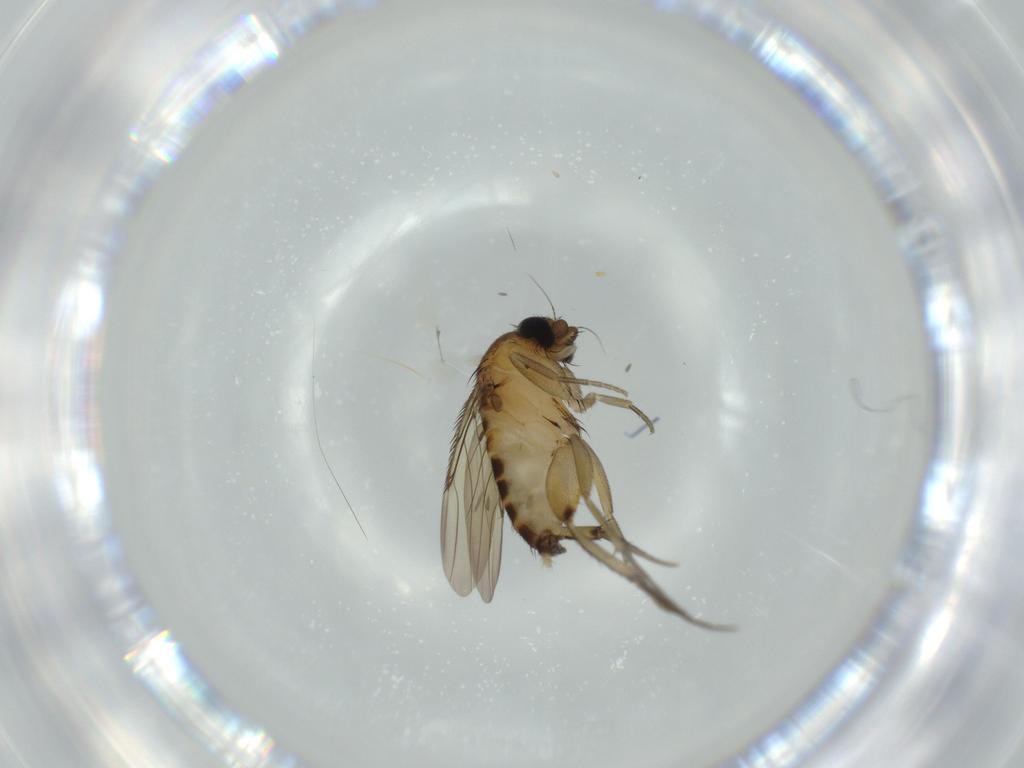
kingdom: Animalia
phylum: Arthropoda
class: Insecta
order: Diptera
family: Phoridae
